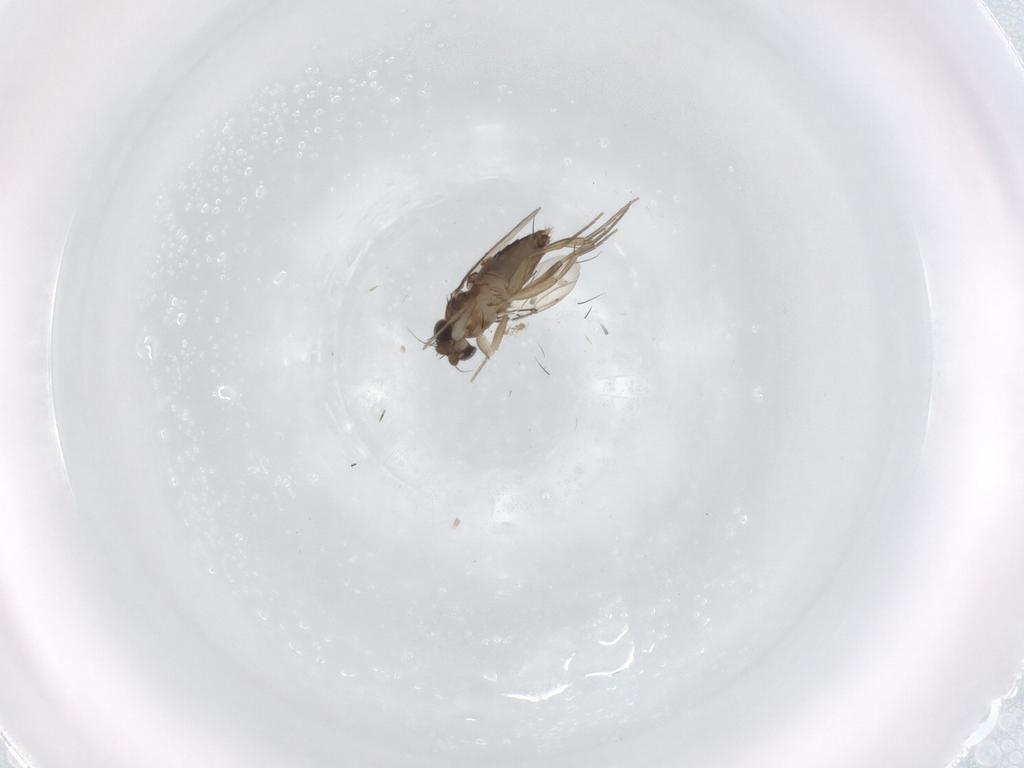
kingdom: Animalia
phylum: Arthropoda
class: Insecta
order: Diptera
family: Phoridae
